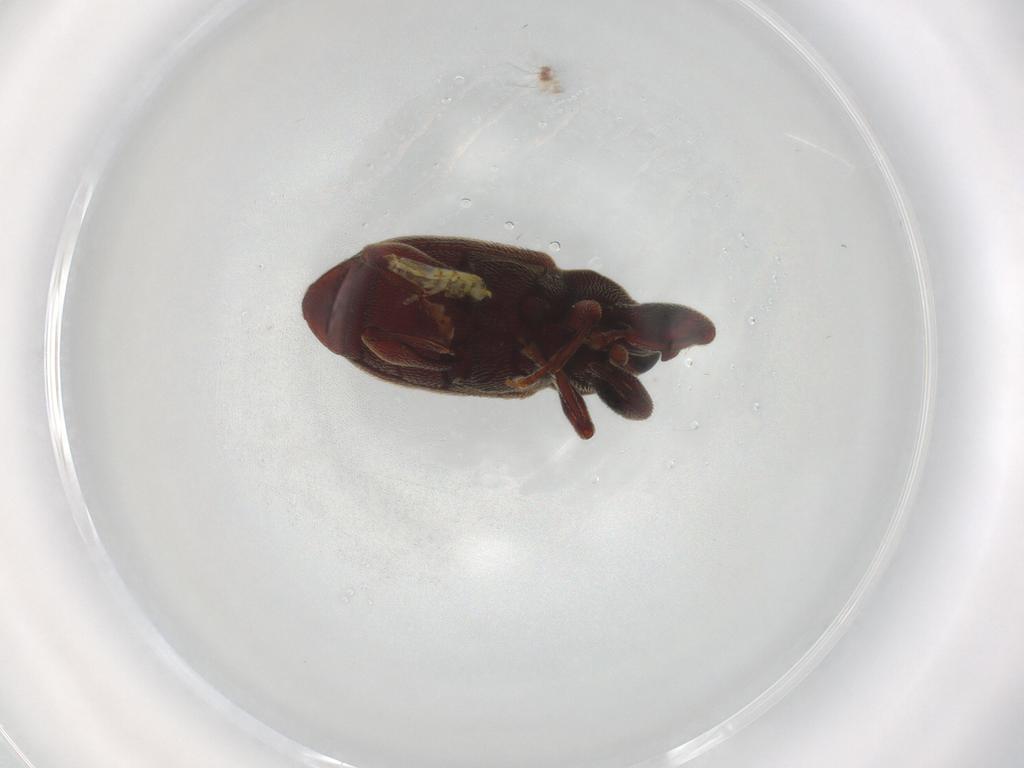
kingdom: Animalia
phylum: Arthropoda
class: Insecta
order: Coleoptera
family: Curculionidae
